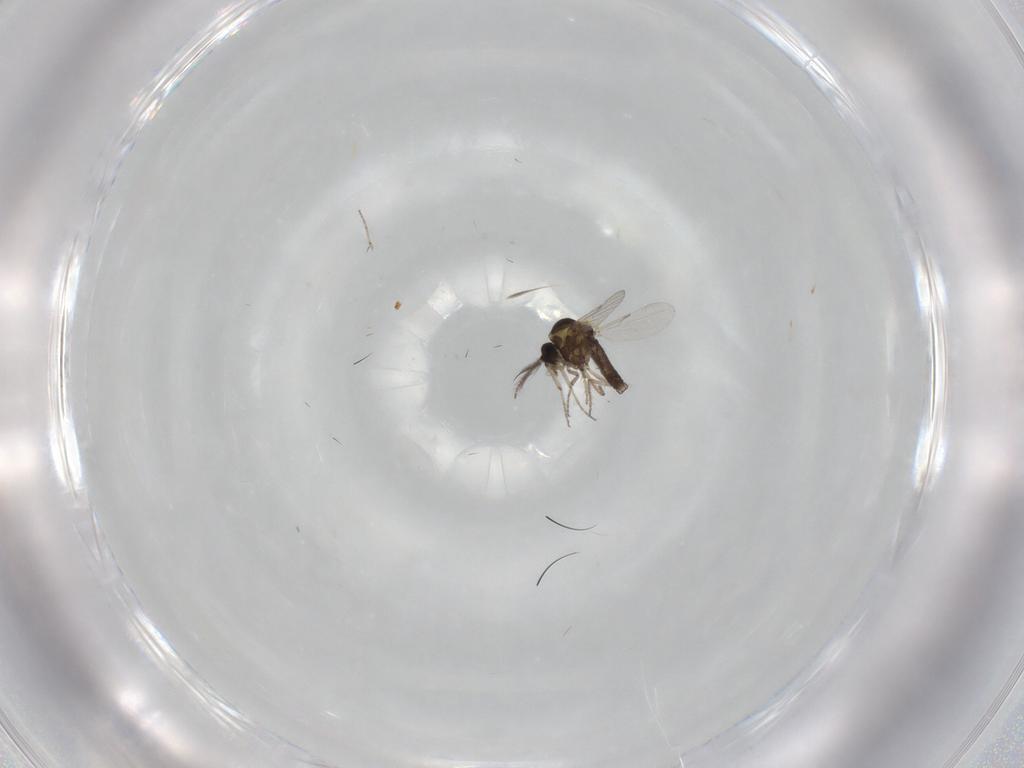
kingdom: Animalia
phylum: Arthropoda
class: Insecta
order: Diptera
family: Ceratopogonidae
